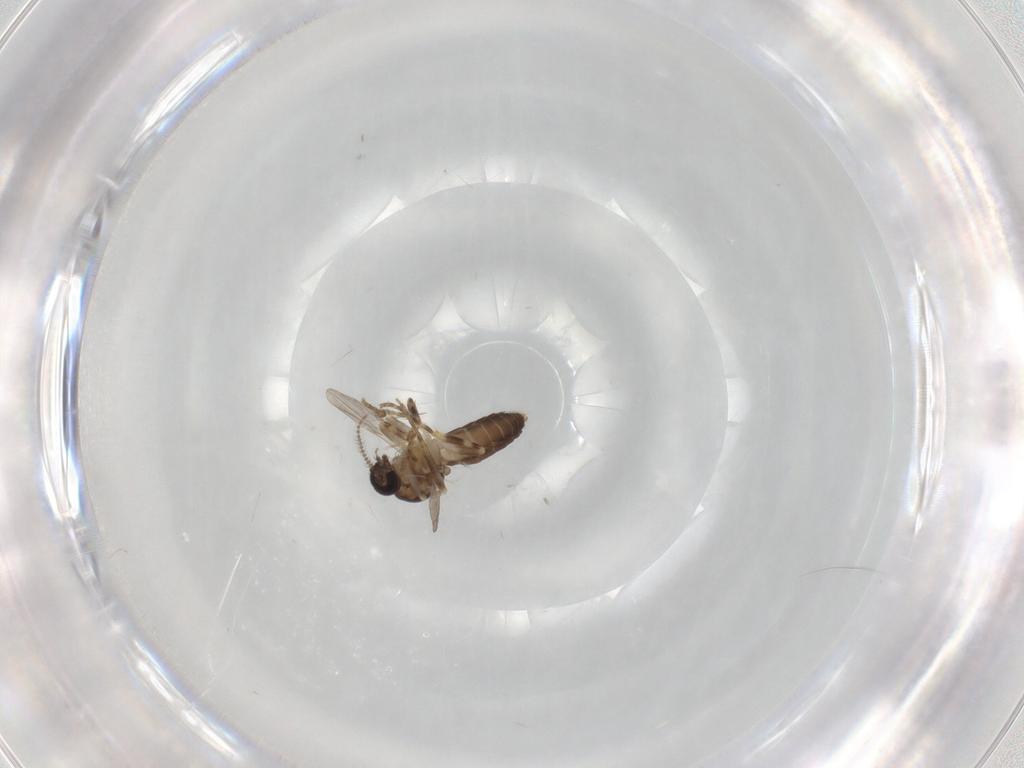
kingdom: Animalia
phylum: Arthropoda
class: Insecta
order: Diptera
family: Ceratopogonidae
